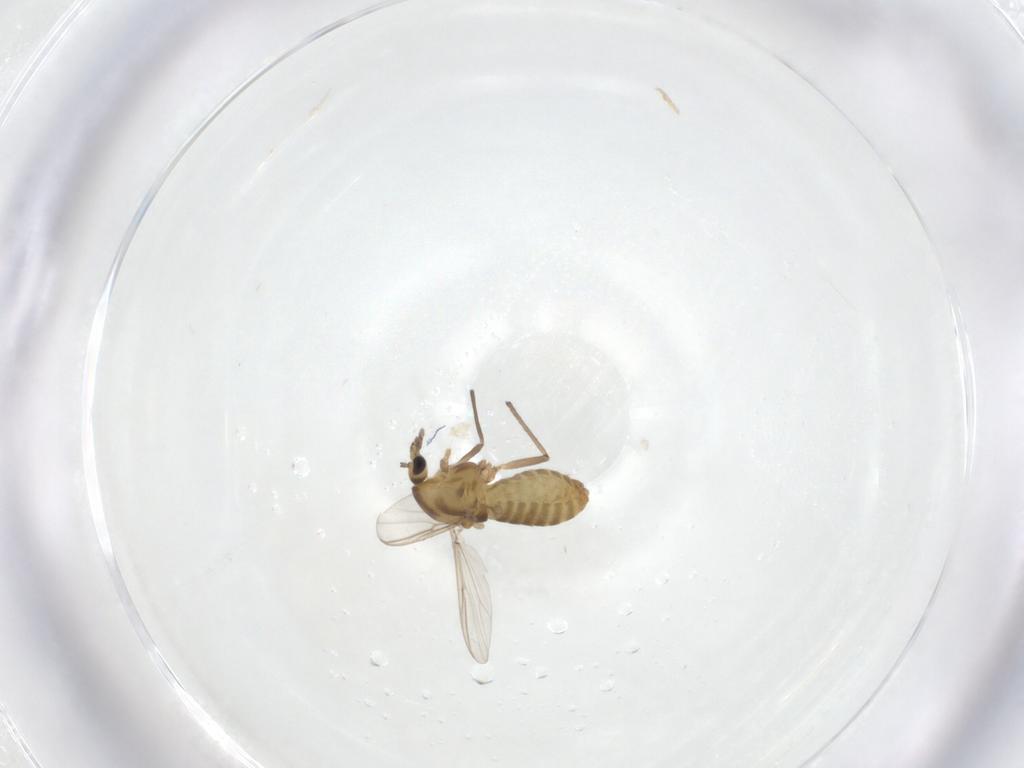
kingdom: Animalia
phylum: Arthropoda
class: Insecta
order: Diptera
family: Chironomidae
